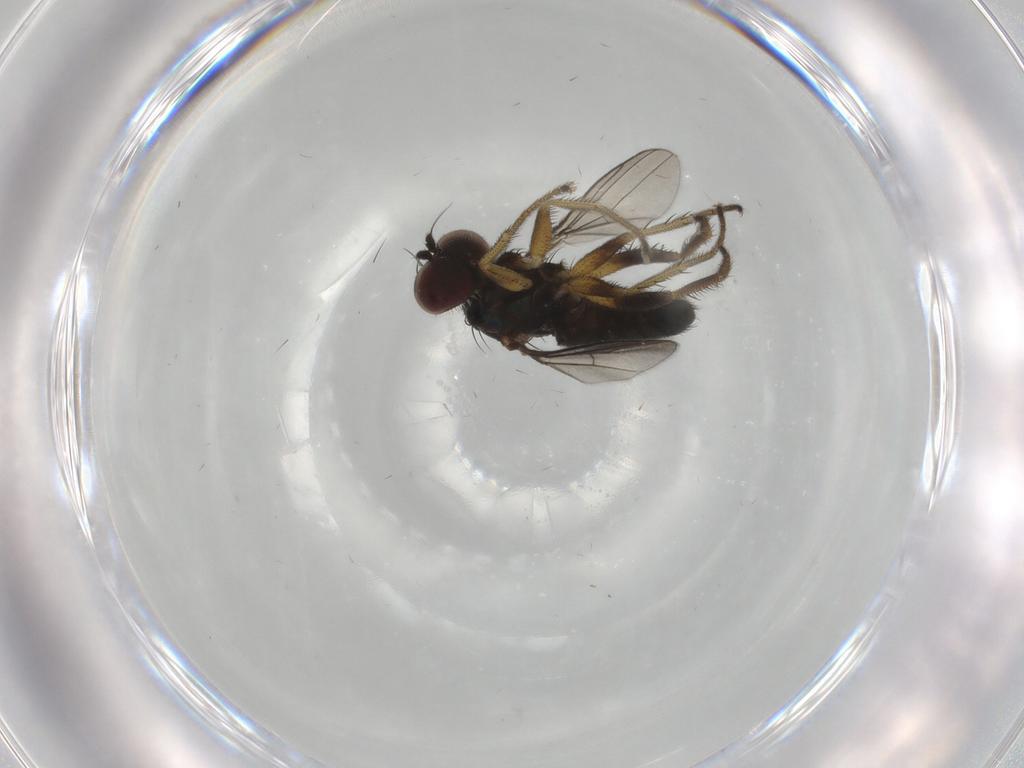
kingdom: Animalia
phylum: Arthropoda
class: Insecta
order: Diptera
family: Dolichopodidae
